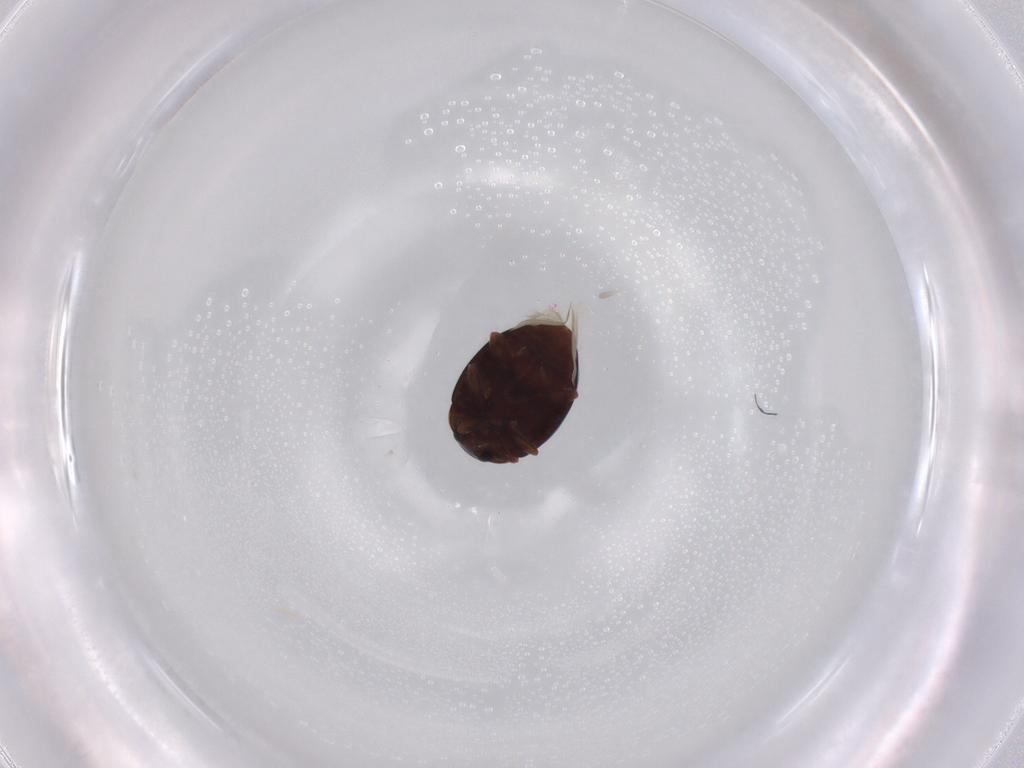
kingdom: Animalia
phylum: Arthropoda
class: Insecta
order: Coleoptera
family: Coccinellidae
